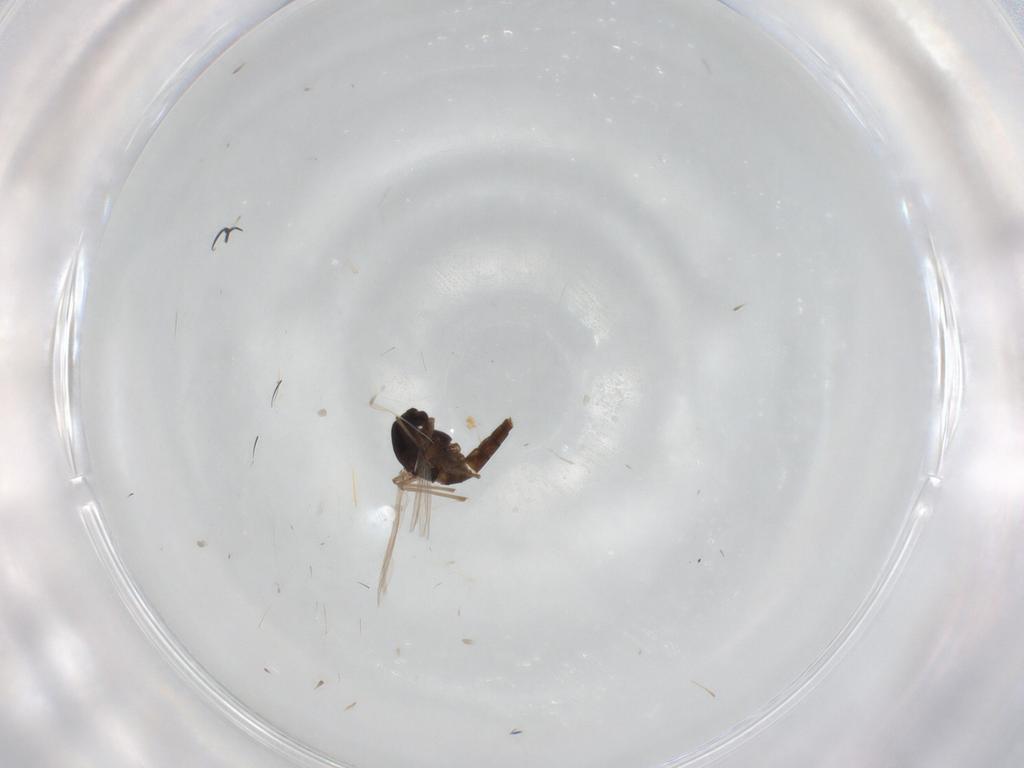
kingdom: Animalia
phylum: Arthropoda
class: Insecta
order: Diptera
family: Chironomidae
